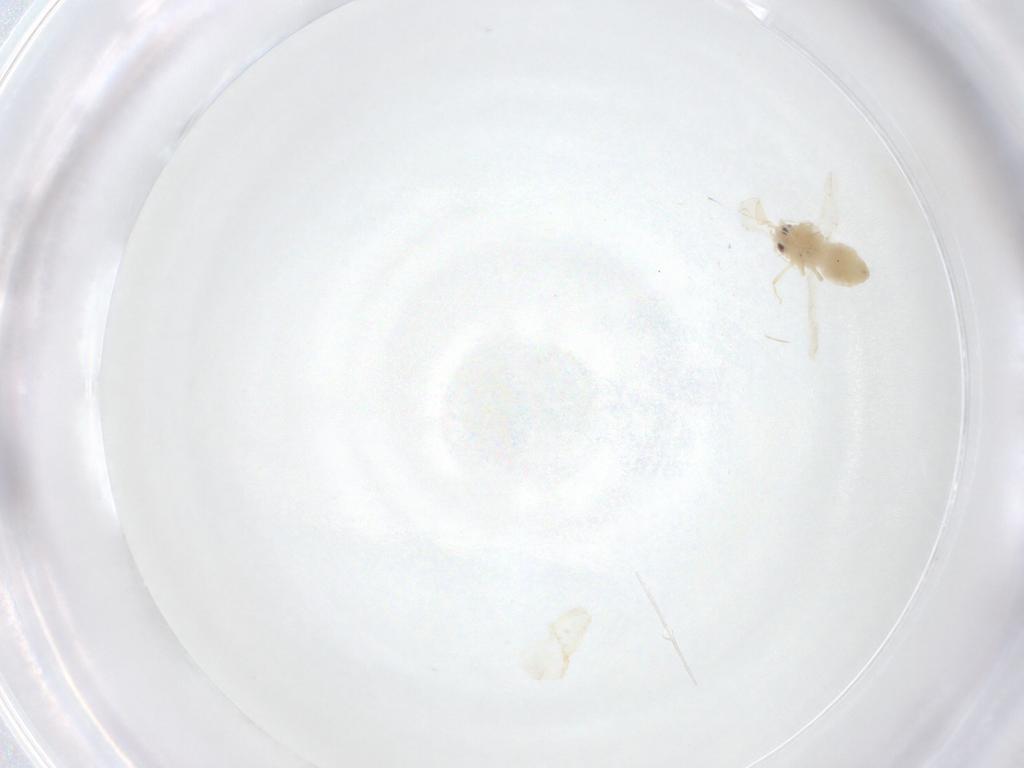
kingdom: Animalia
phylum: Arthropoda
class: Insecta
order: Hemiptera
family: Aleyrodidae
